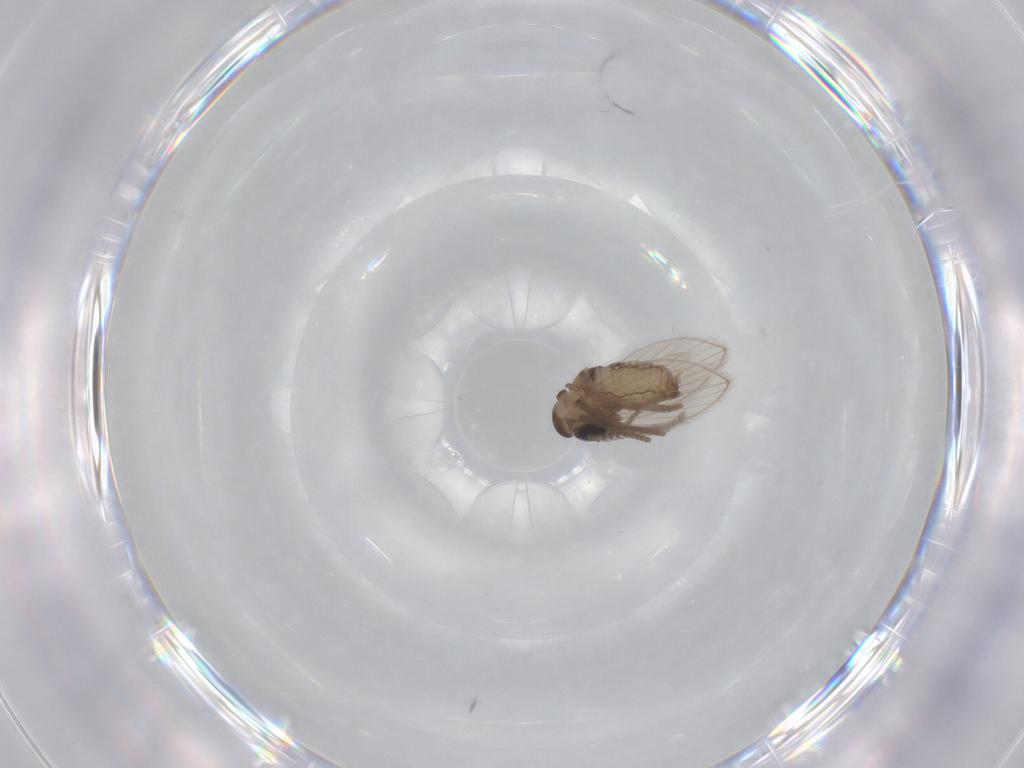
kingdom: Animalia
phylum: Arthropoda
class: Insecta
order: Diptera
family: Psychodidae
